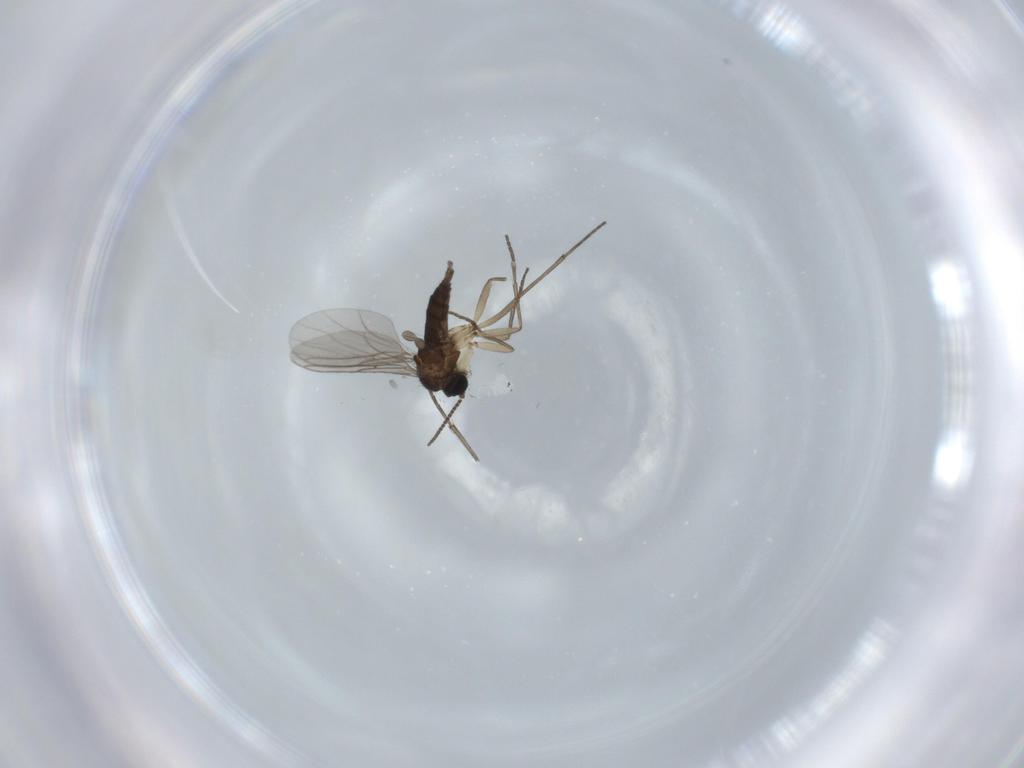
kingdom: Animalia
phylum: Arthropoda
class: Insecta
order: Diptera
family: Sciaridae
